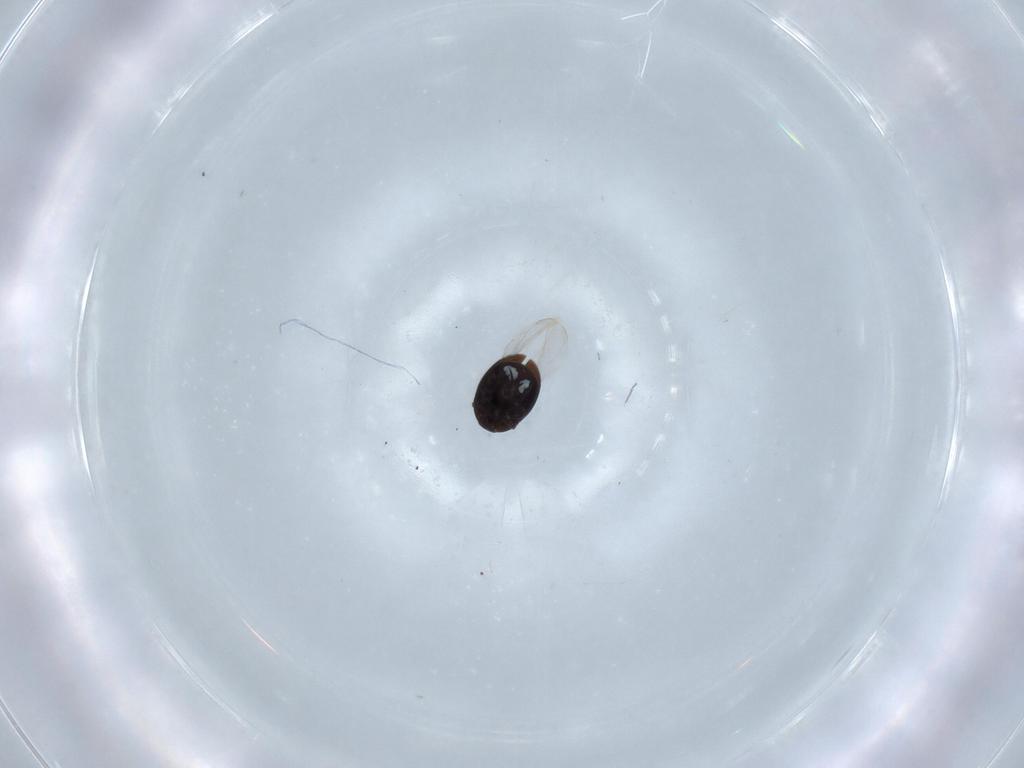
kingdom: Animalia
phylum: Arthropoda
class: Insecta
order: Coleoptera
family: Corylophidae
